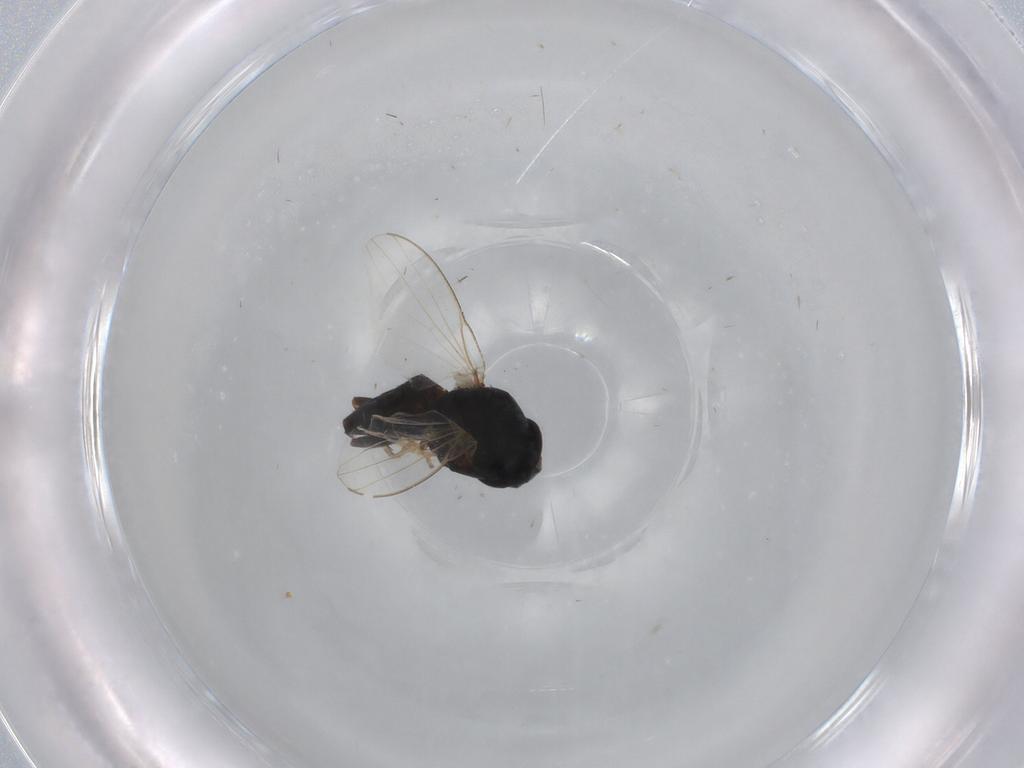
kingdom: Animalia
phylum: Arthropoda
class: Insecta
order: Diptera
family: Milichiidae
